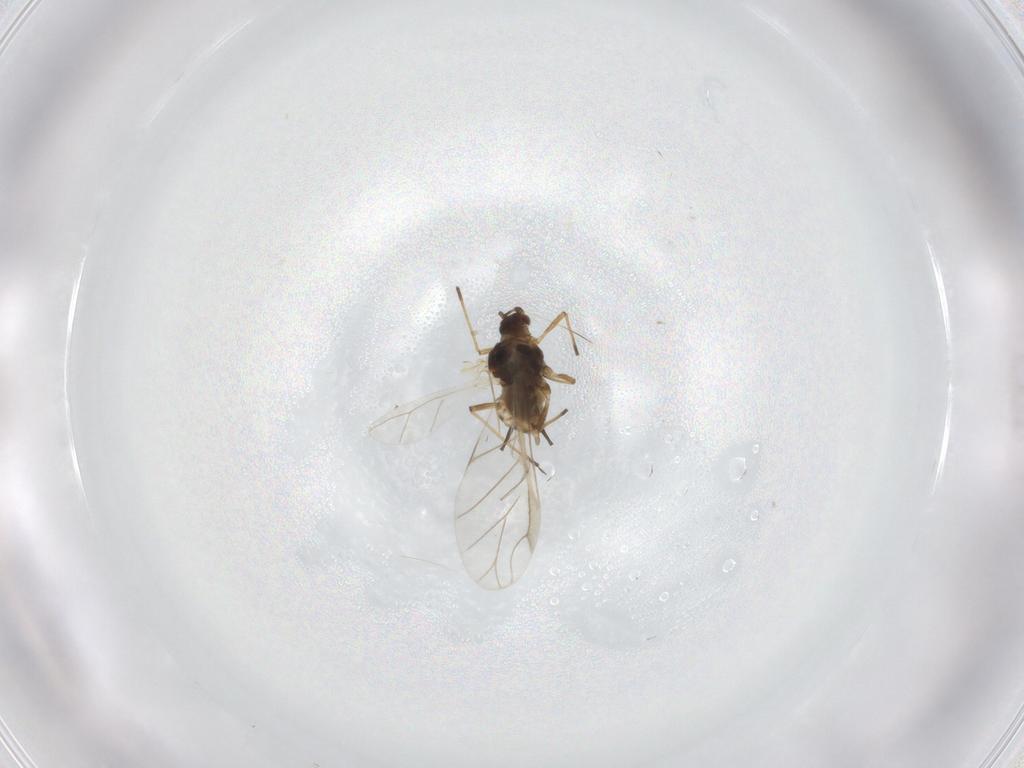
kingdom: Animalia
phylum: Arthropoda
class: Insecta
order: Hemiptera
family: Aphididae
